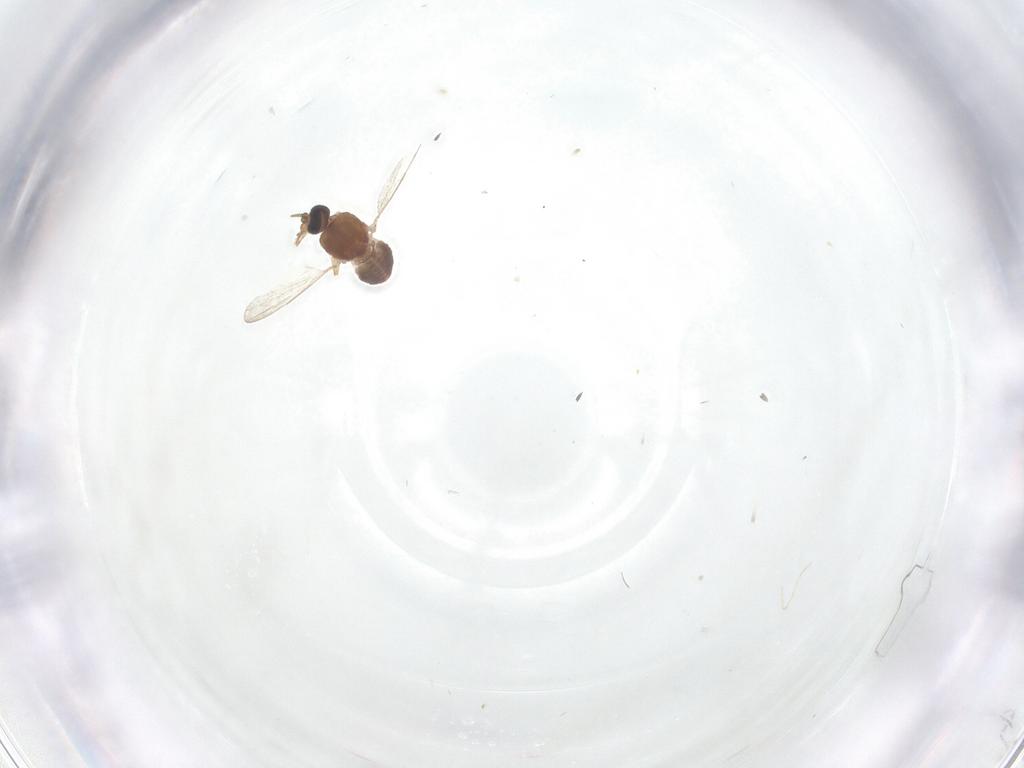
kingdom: Animalia
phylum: Arthropoda
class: Insecta
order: Diptera
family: Ceratopogonidae
